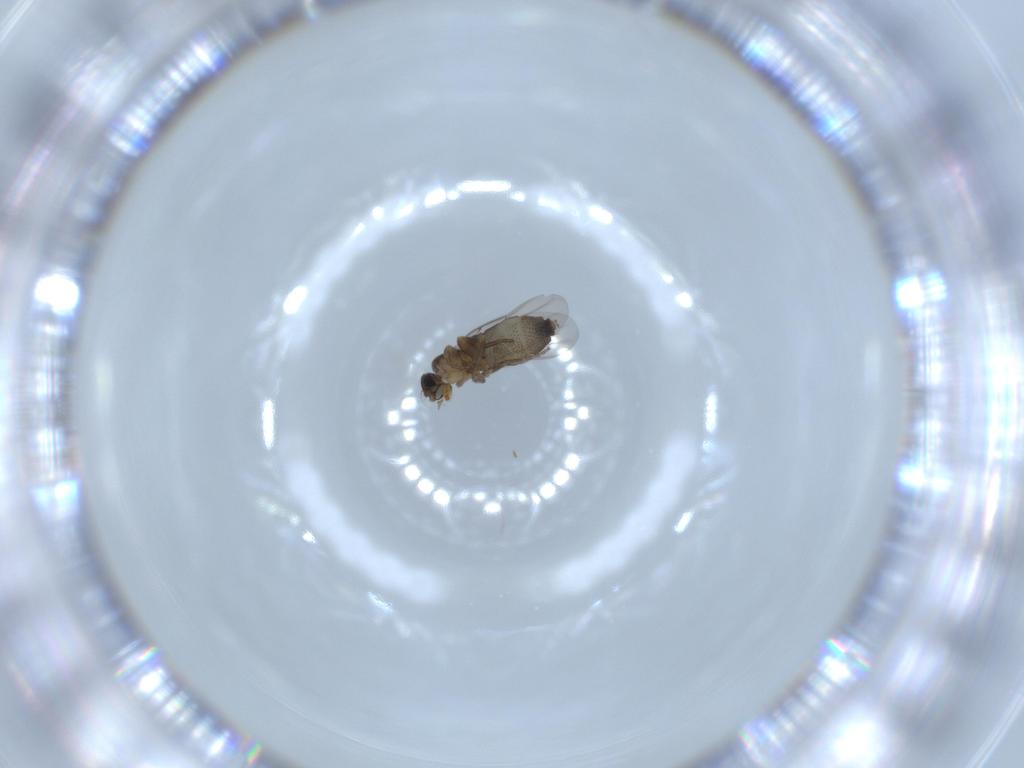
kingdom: Animalia
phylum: Arthropoda
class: Insecta
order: Diptera
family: Phoridae
